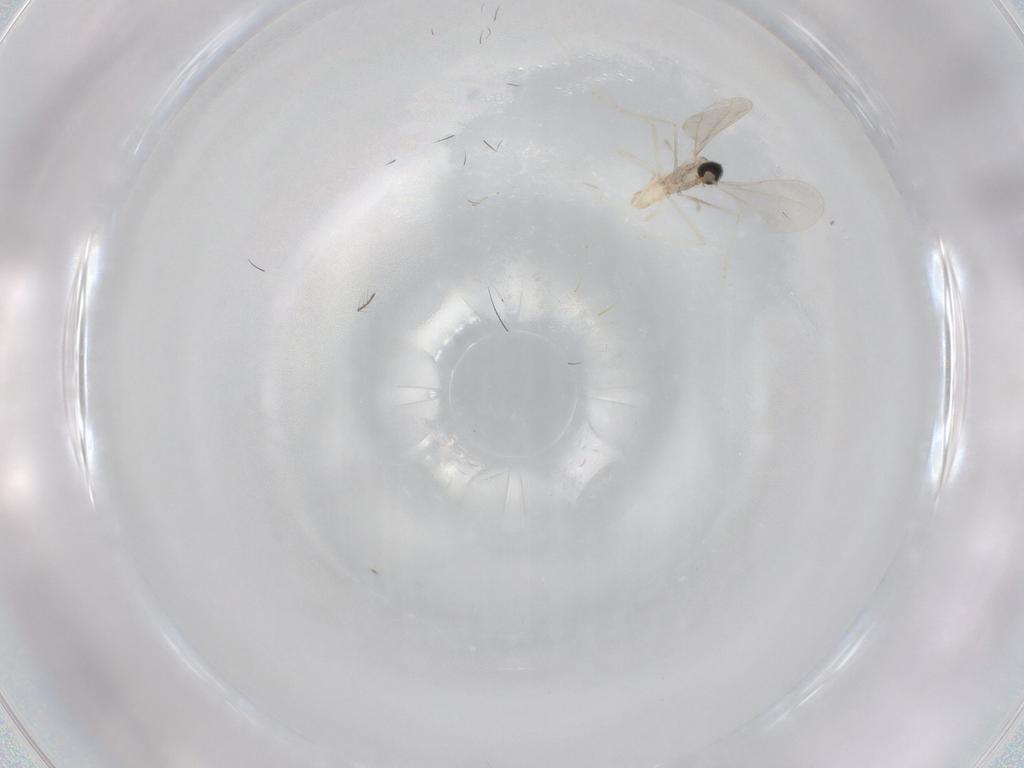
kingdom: Animalia
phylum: Arthropoda
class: Insecta
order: Diptera
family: Cecidomyiidae
